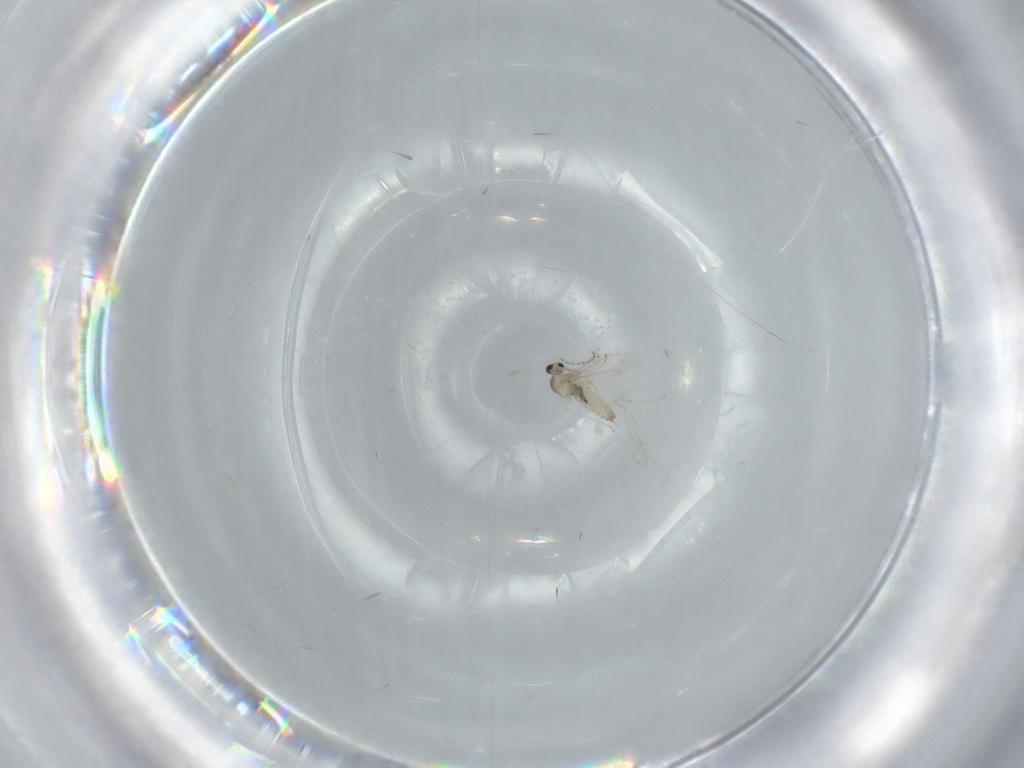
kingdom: Animalia
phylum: Arthropoda
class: Insecta
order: Diptera
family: Cecidomyiidae
